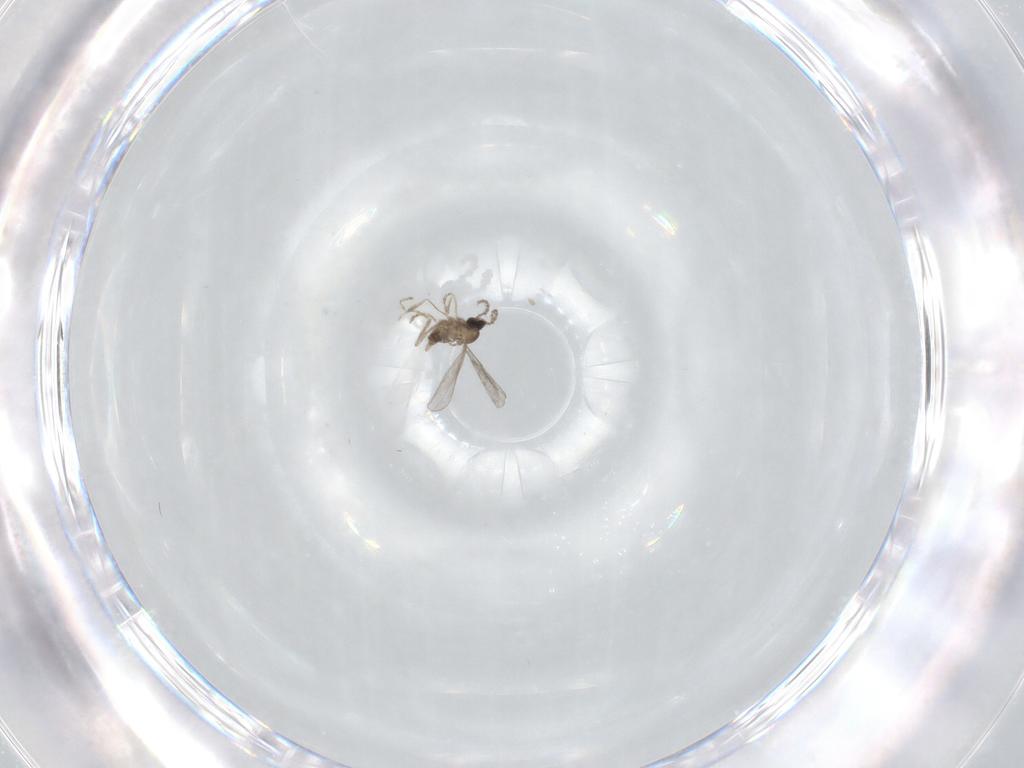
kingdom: Animalia
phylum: Arthropoda
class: Insecta
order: Diptera
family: Cecidomyiidae
